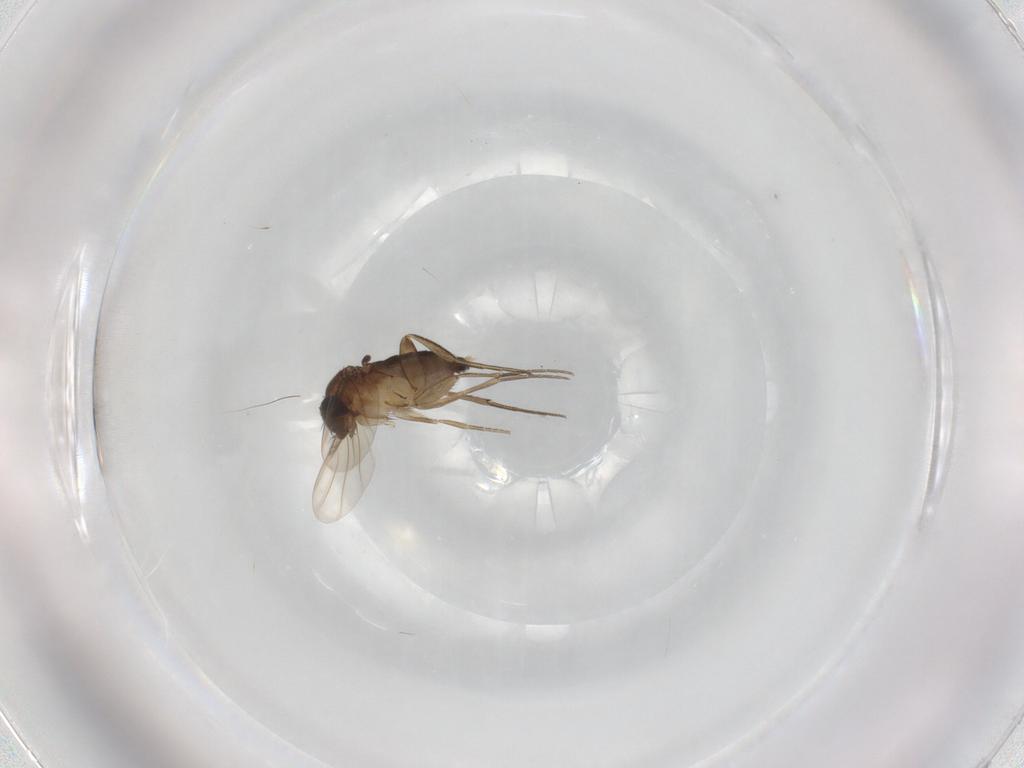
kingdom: Animalia
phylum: Arthropoda
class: Insecta
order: Diptera
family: Phoridae
